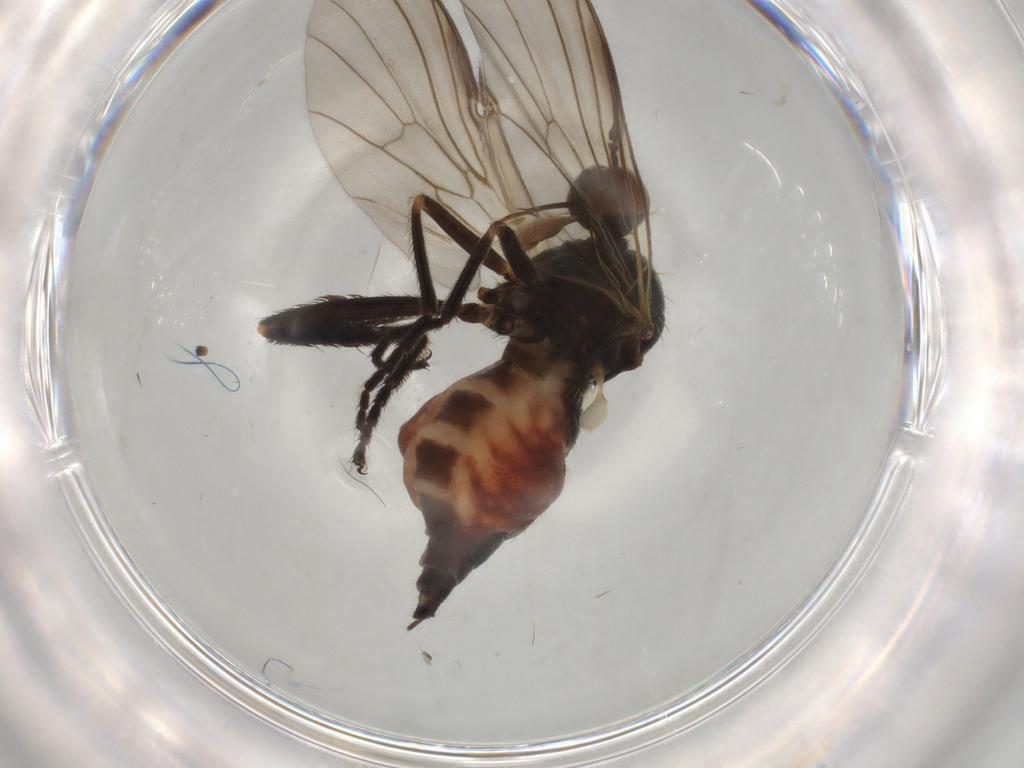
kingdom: Animalia
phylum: Arthropoda
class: Insecta
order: Diptera
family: Empididae
